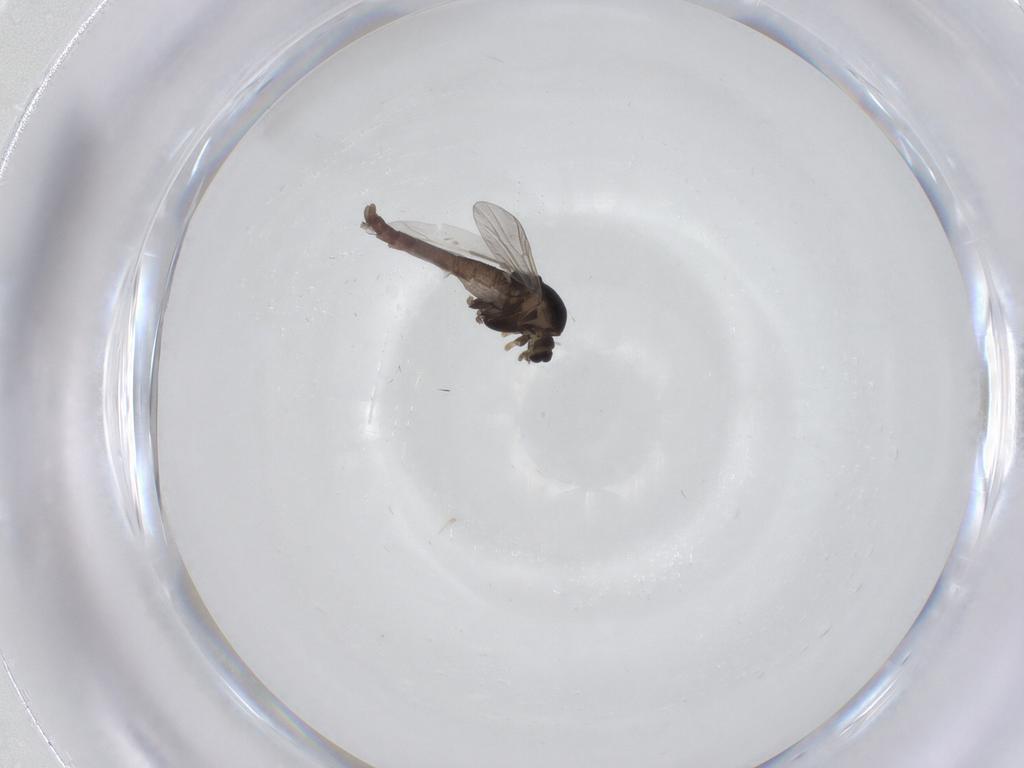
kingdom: Animalia
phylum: Arthropoda
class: Insecta
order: Diptera
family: Chironomidae
